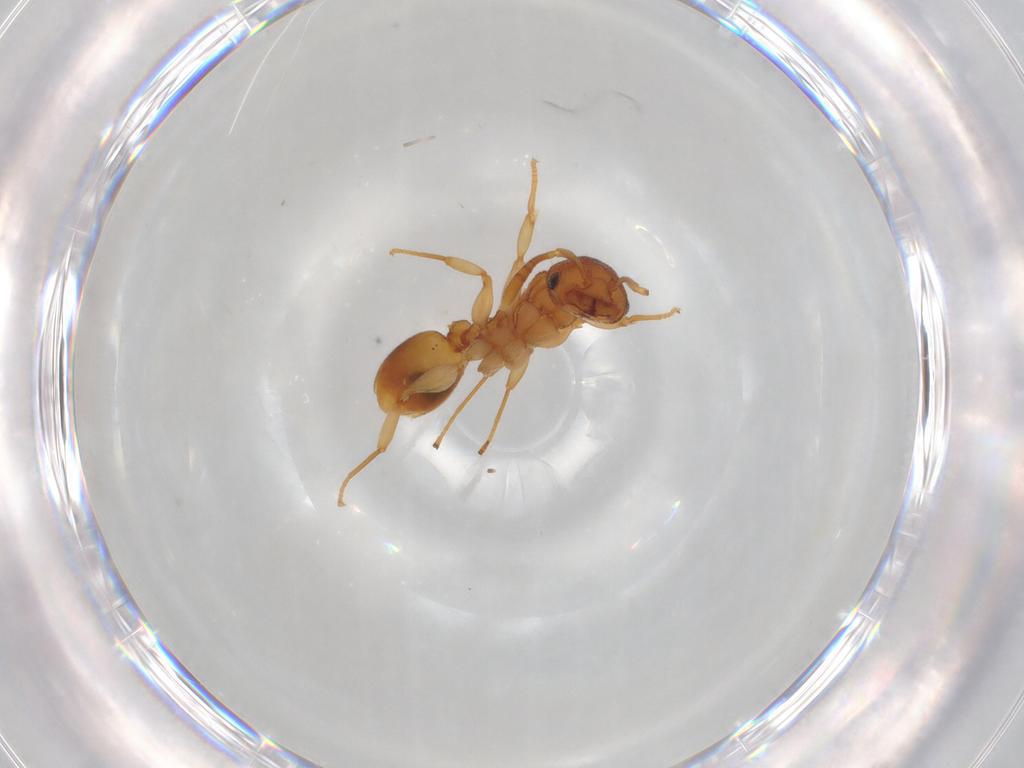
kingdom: Animalia
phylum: Arthropoda
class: Insecta
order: Hymenoptera
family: Formicidae
